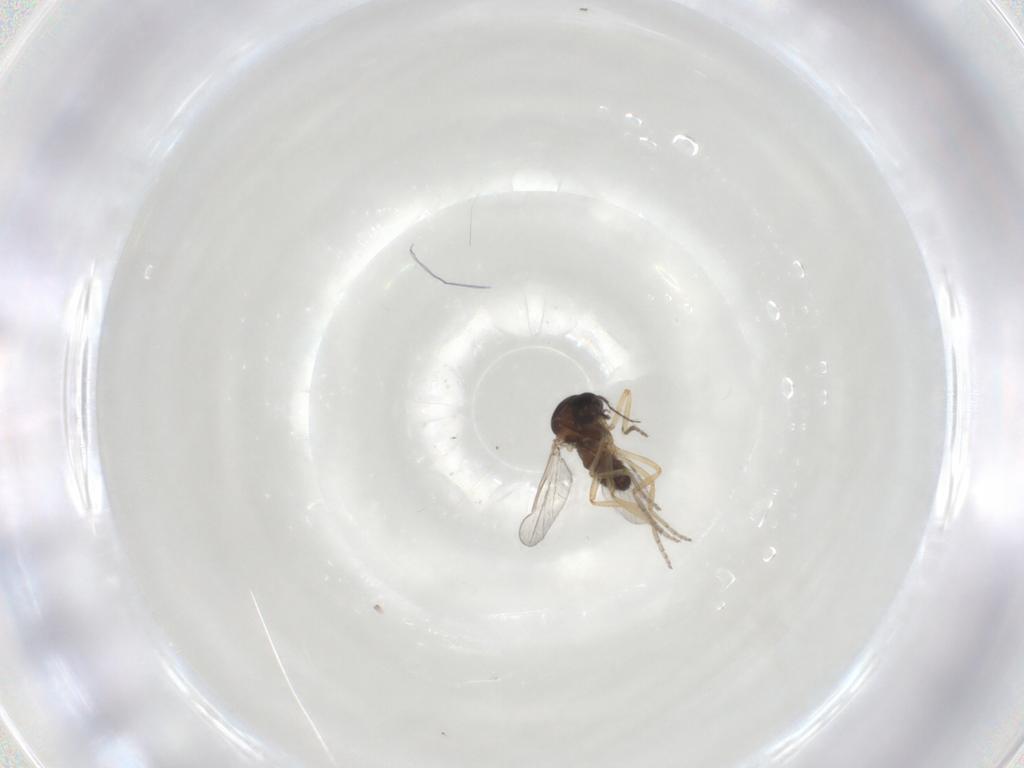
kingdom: Animalia
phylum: Arthropoda
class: Insecta
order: Diptera
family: Ceratopogonidae
